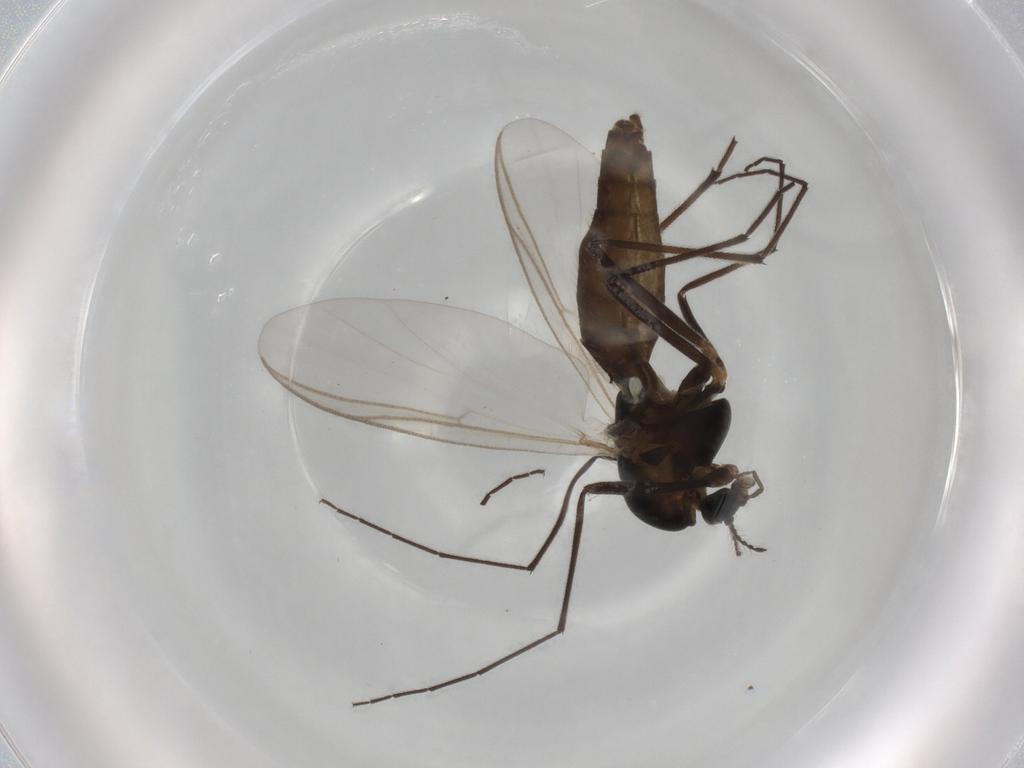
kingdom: Animalia
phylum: Arthropoda
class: Insecta
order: Diptera
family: Chironomidae
